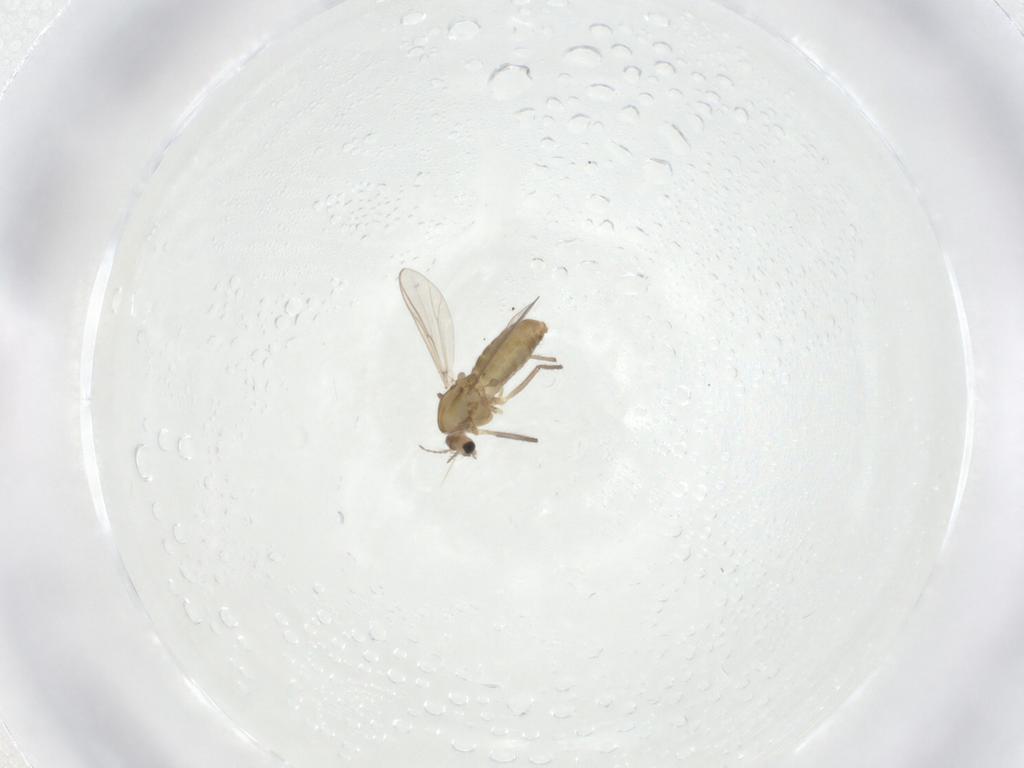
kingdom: Animalia
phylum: Arthropoda
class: Insecta
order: Diptera
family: Chironomidae
